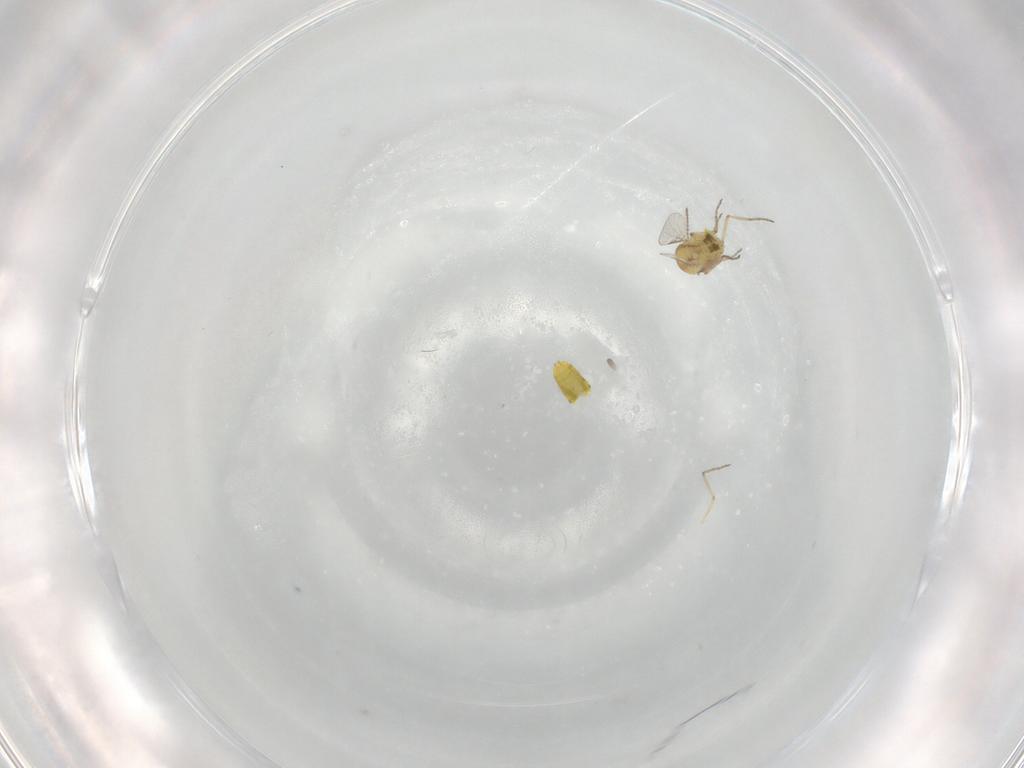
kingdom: Animalia
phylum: Arthropoda
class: Insecta
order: Diptera
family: Ceratopogonidae
